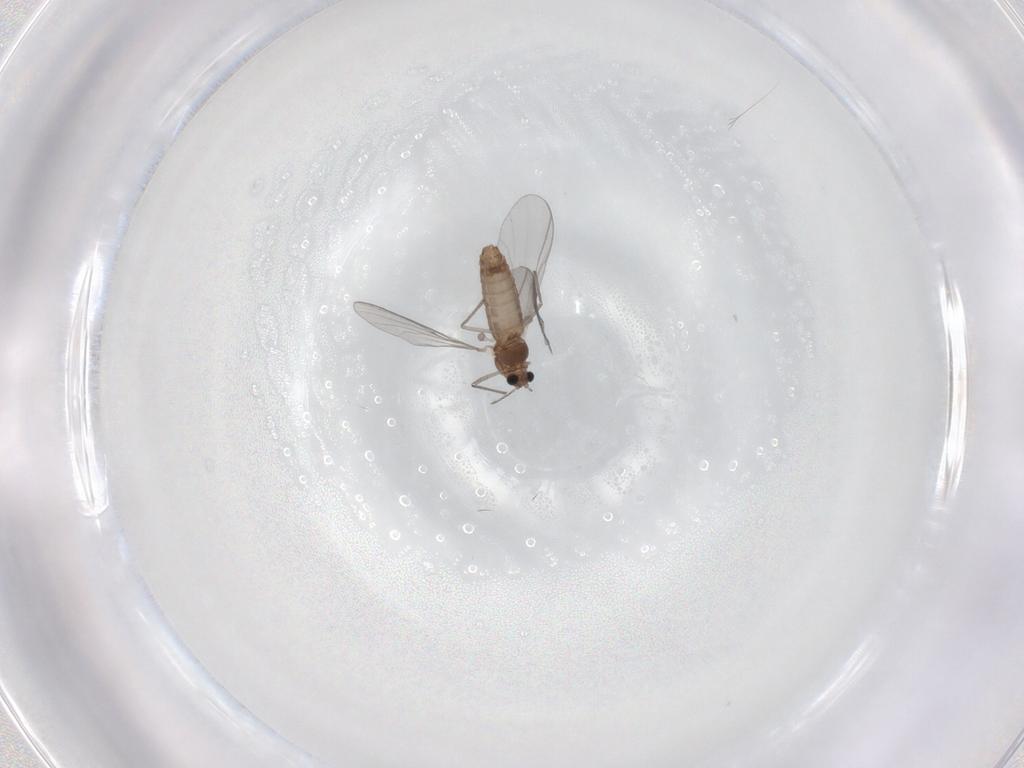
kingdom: Animalia
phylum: Arthropoda
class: Insecta
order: Diptera
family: Chironomidae
